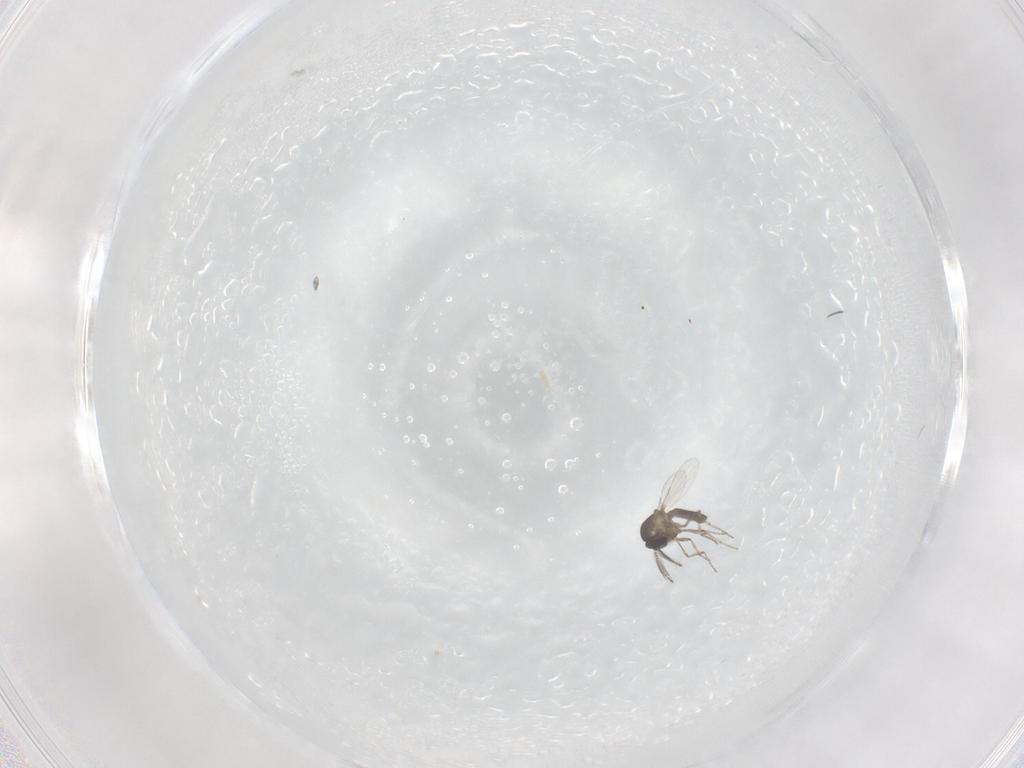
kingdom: Animalia
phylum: Arthropoda
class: Insecta
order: Diptera
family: Ceratopogonidae
